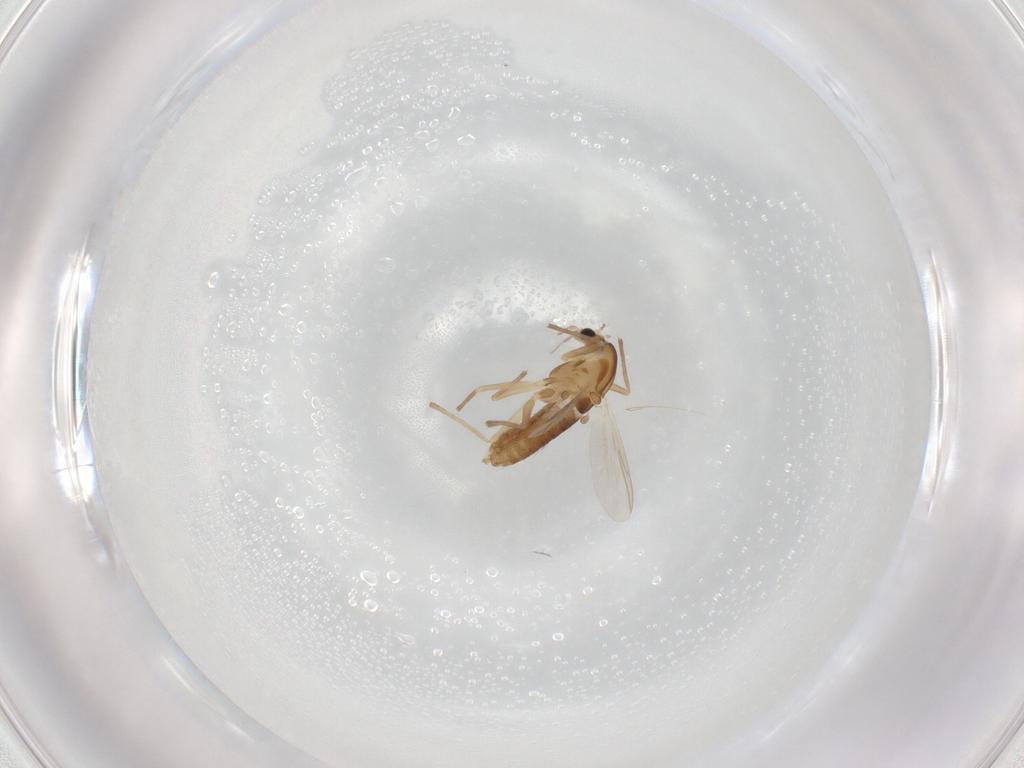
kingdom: Animalia
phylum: Arthropoda
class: Insecta
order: Diptera
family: Chironomidae
